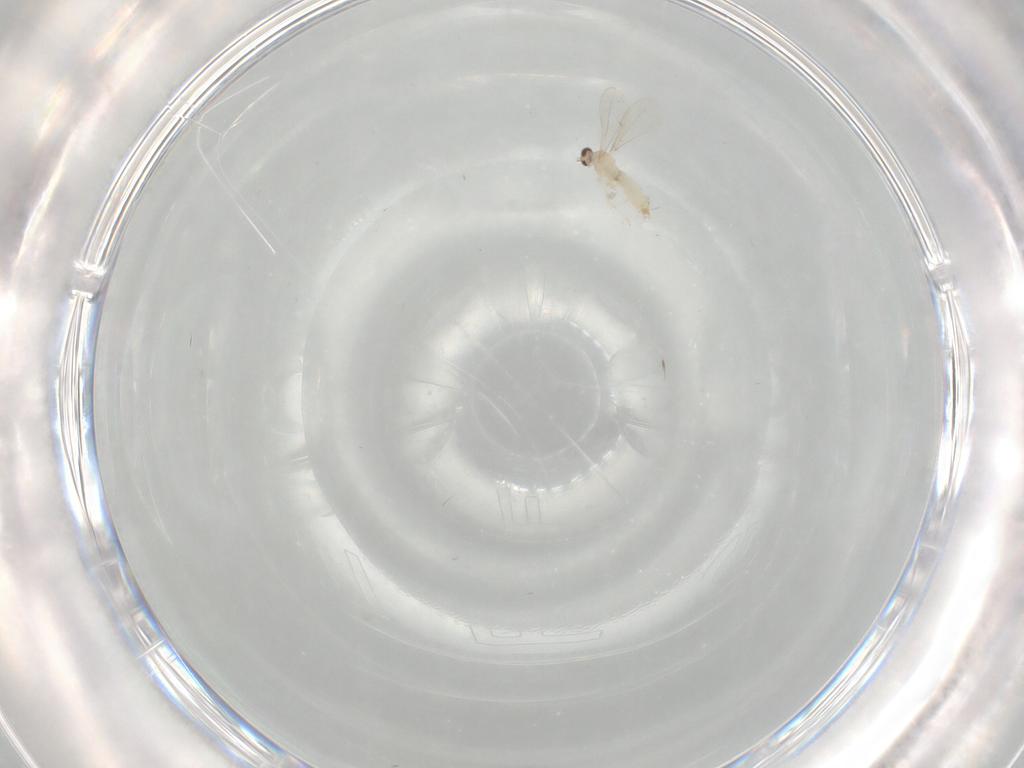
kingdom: Animalia
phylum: Arthropoda
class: Insecta
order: Diptera
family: Cecidomyiidae
